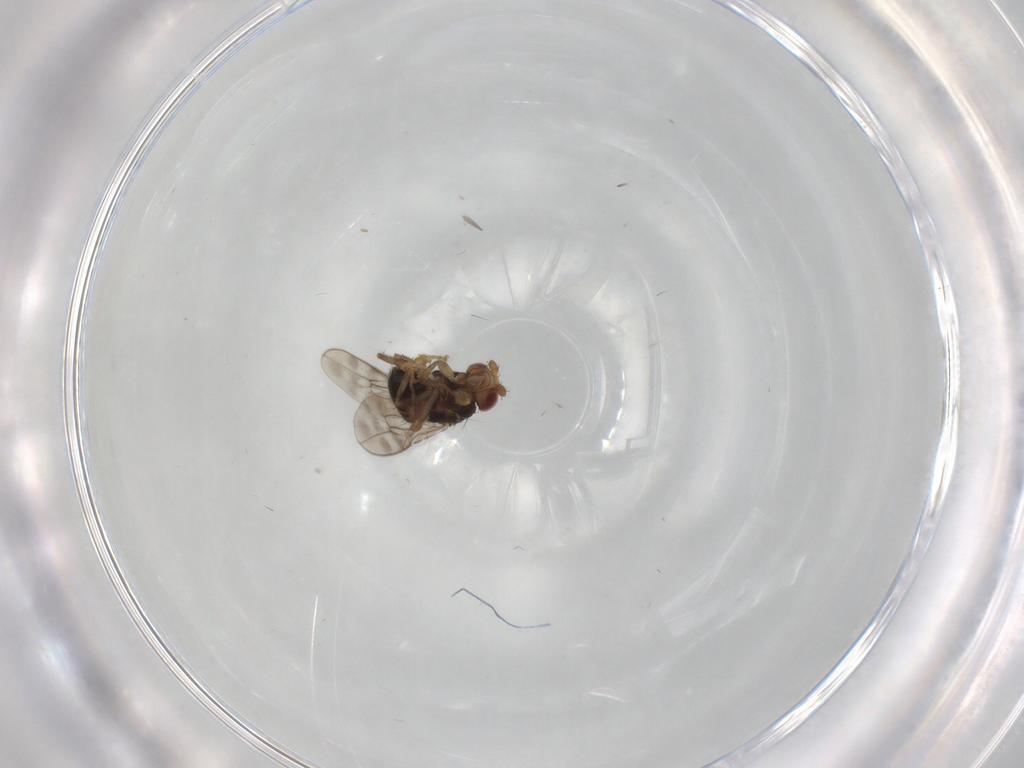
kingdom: Animalia
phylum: Arthropoda
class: Insecta
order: Diptera
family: Sphaeroceridae
